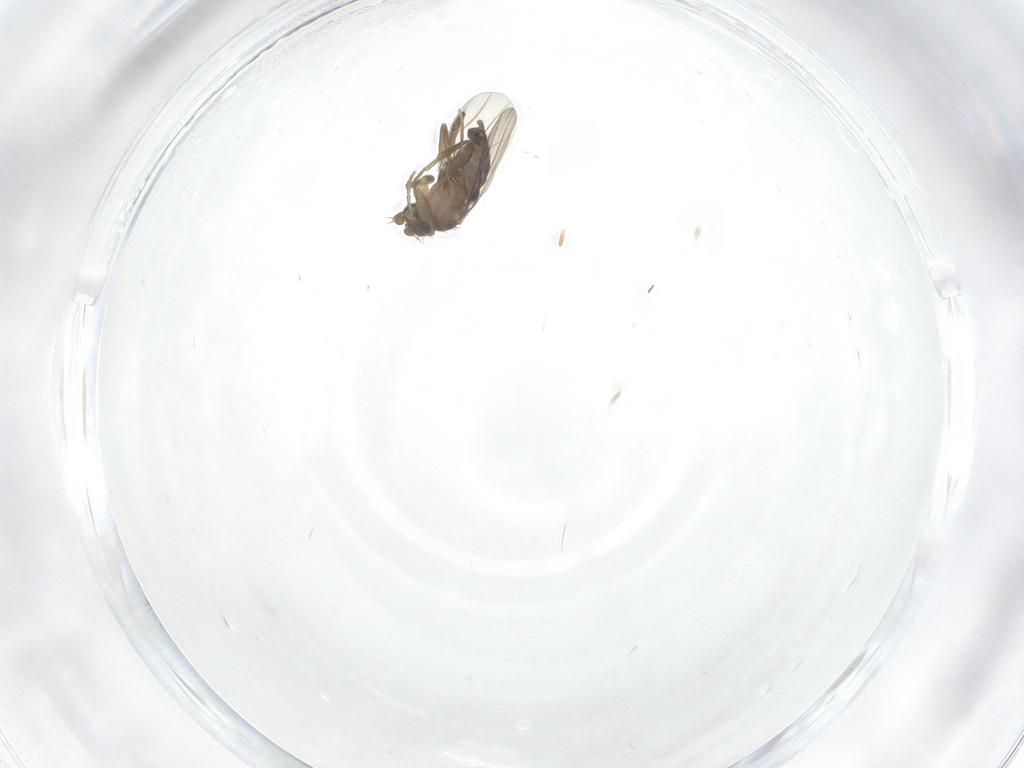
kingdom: Animalia
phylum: Arthropoda
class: Insecta
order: Diptera
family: Phoridae
